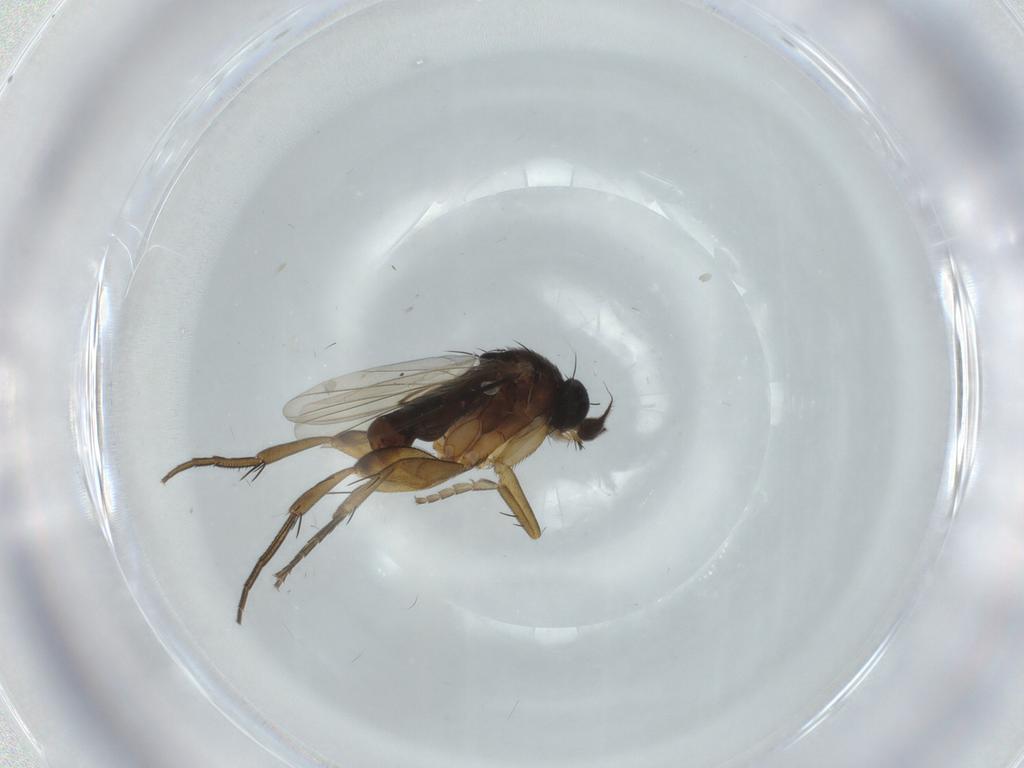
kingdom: Animalia
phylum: Arthropoda
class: Insecta
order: Diptera
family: Phoridae
